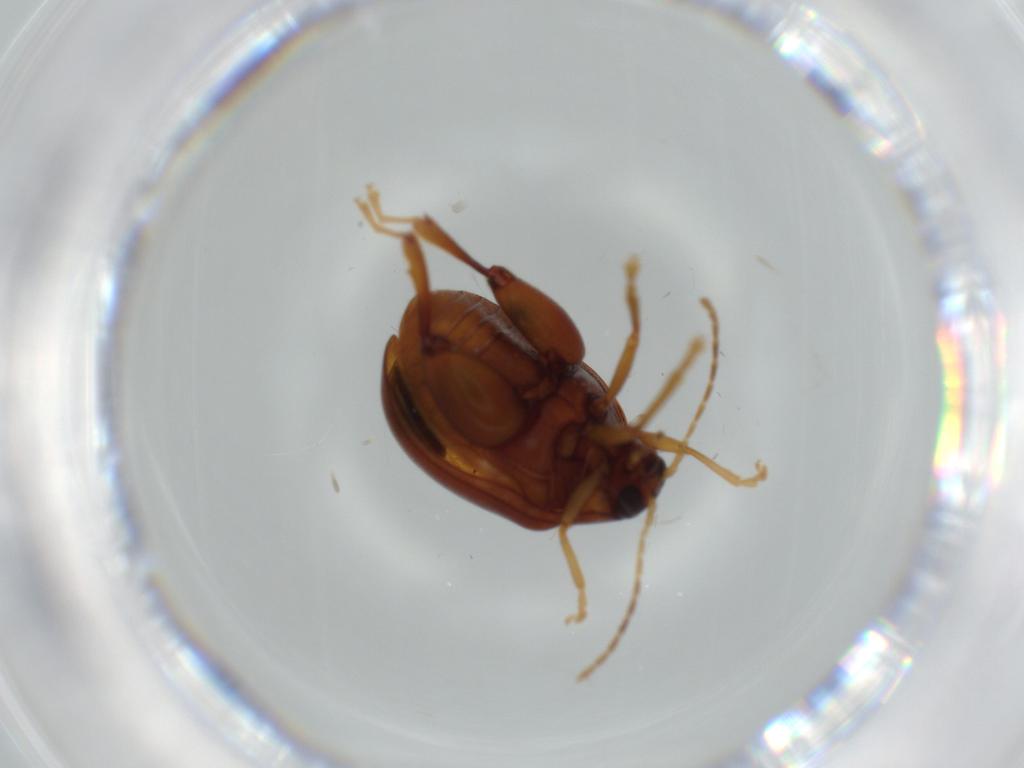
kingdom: Animalia
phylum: Arthropoda
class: Insecta
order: Coleoptera
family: Chrysomelidae
